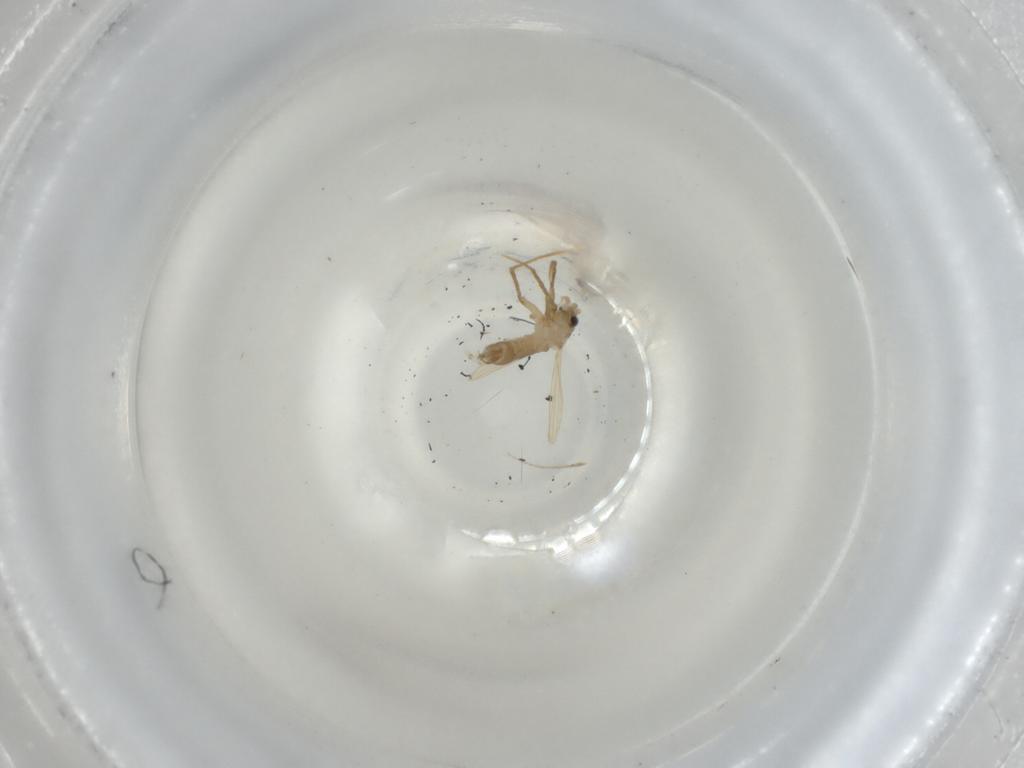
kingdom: Animalia
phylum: Arthropoda
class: Insecta
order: Diptera
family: Psychodidae
